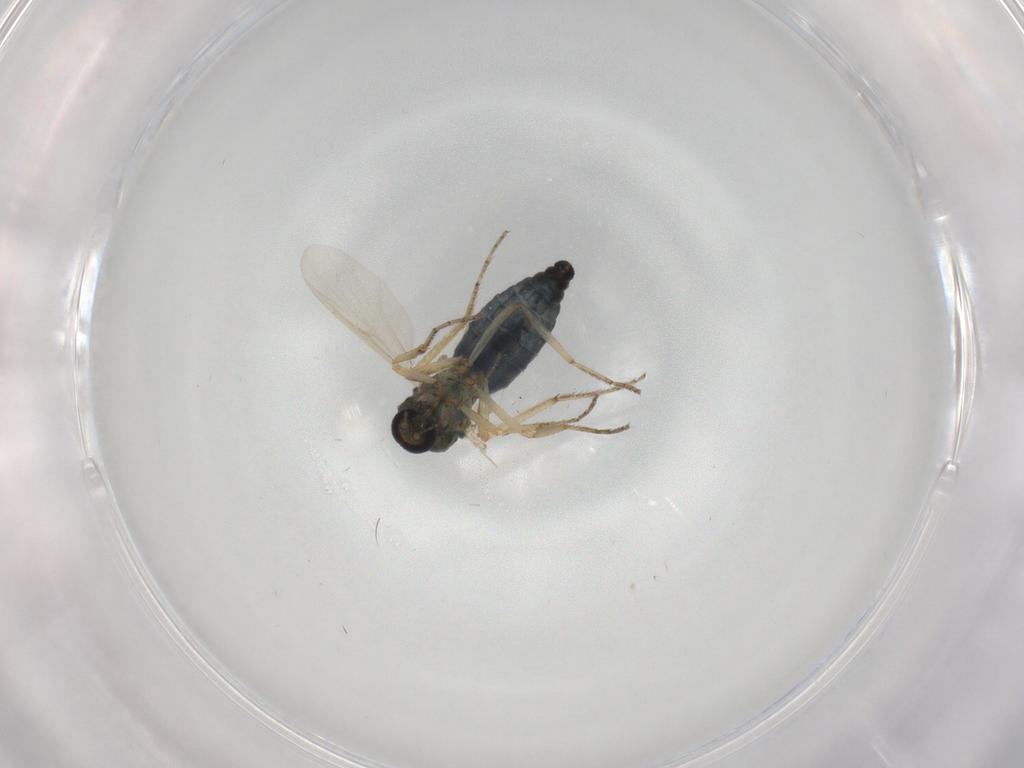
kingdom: Animalia
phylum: Arthropoda
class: Insecta
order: Diptera
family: Ceratopogonidae
